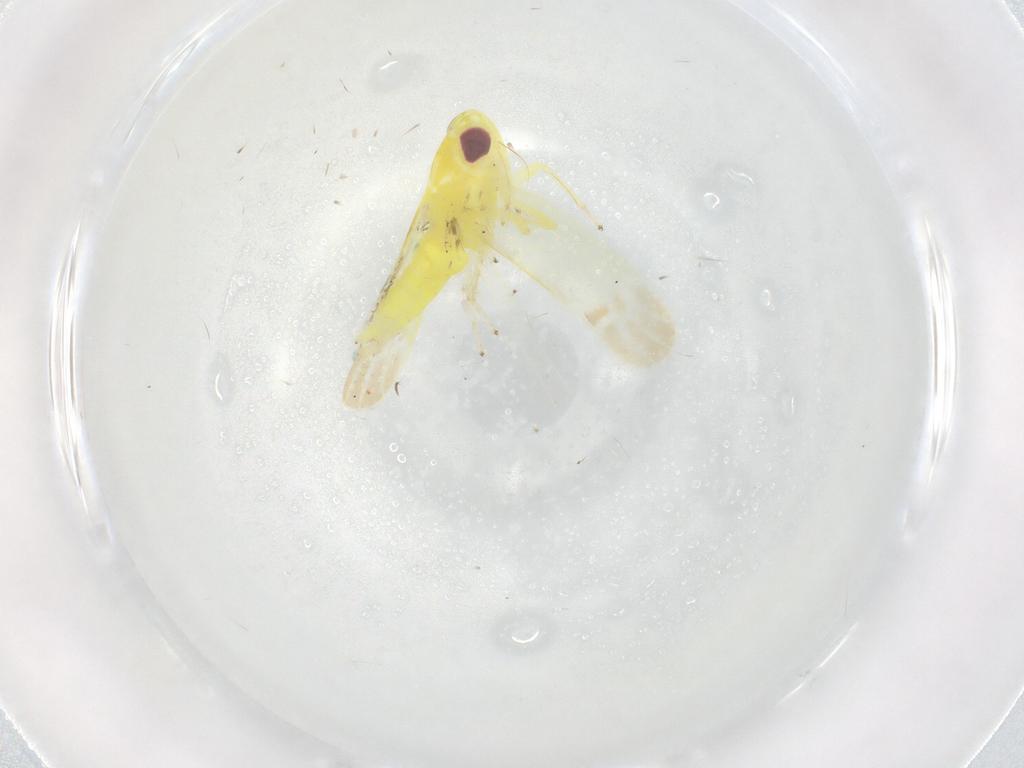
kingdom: Animalia
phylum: Arthropoda
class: Insecta
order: Hemiptera
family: Cicadellidae
